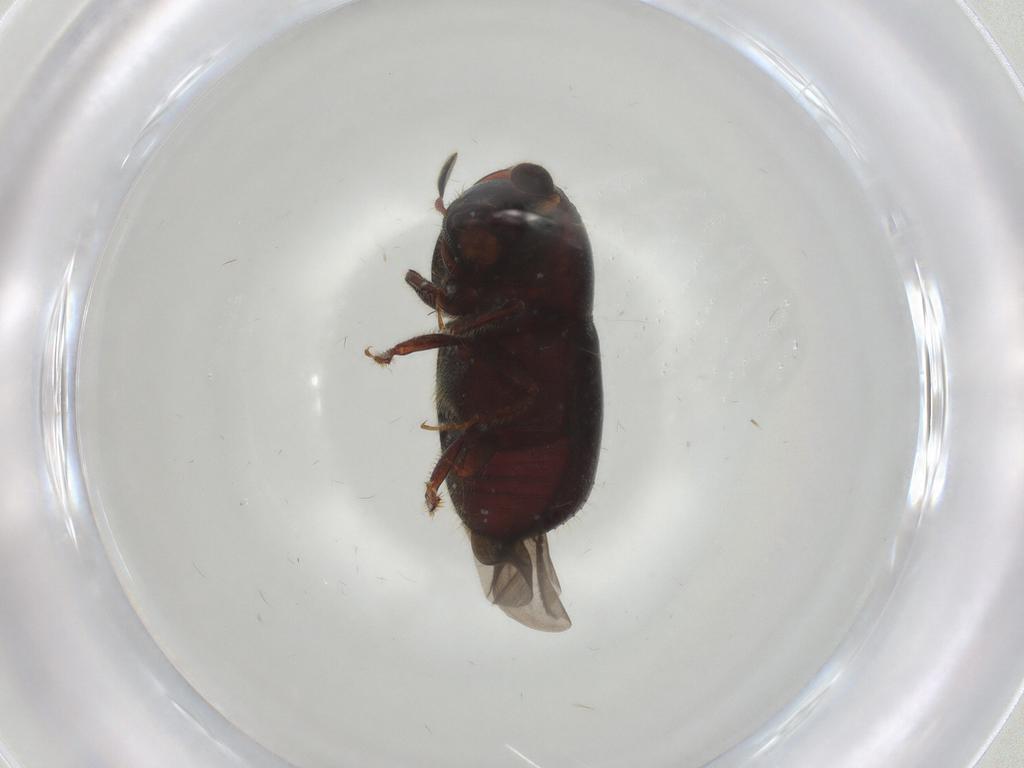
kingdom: Animalia
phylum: Arthropoda
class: Insecta
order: Coleoptera
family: Curculionidae
